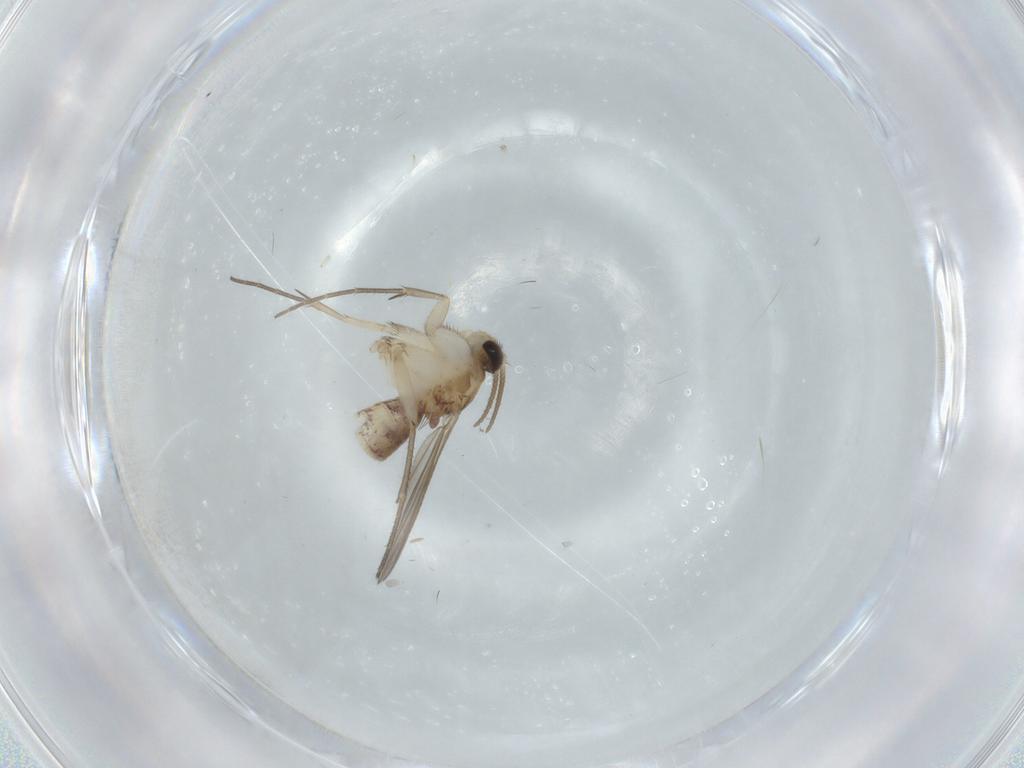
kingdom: Animalia
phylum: Arthropoda
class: Insecta
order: Diptera
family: Mycetophilidae
